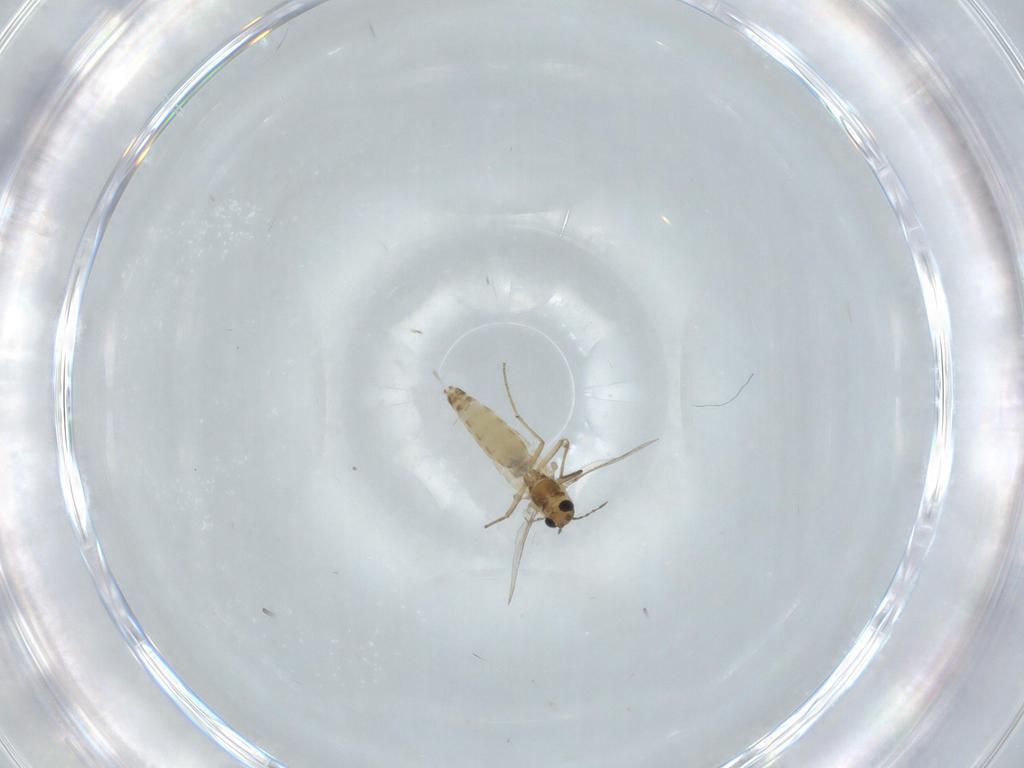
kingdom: Animalia
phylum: Arthropoda
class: Insecta
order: Diptera
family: Chironomidae
